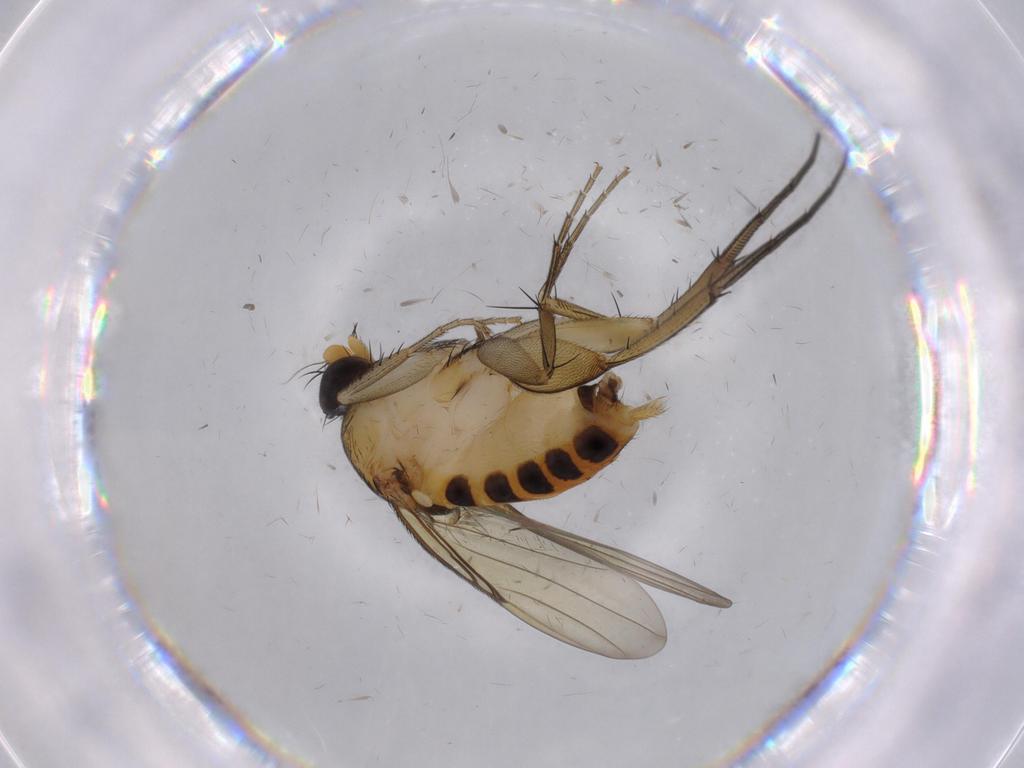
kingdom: Animalia
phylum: Arthropoda
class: Insecta
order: Diptera
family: Phoridae
